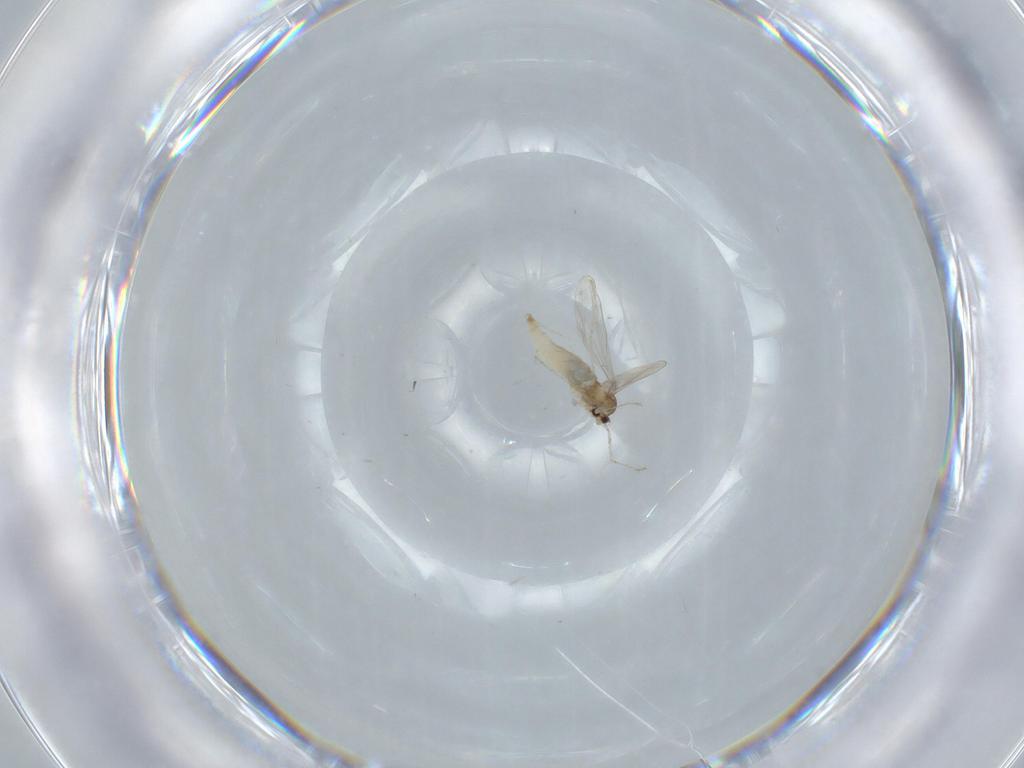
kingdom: Animalia
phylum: Arthropoda
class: Insecta
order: Diptera
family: Cecidomyiidae
